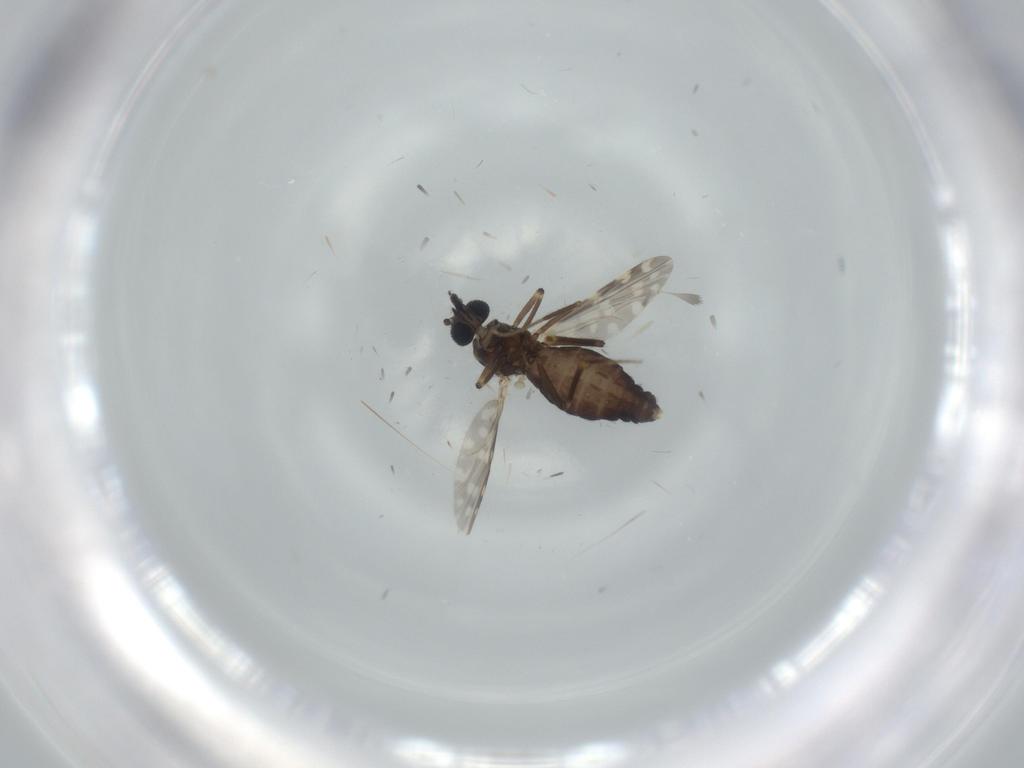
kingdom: Animalia
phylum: Arthropoda
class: Insecta
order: Diptera
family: Ceratopogonidae
